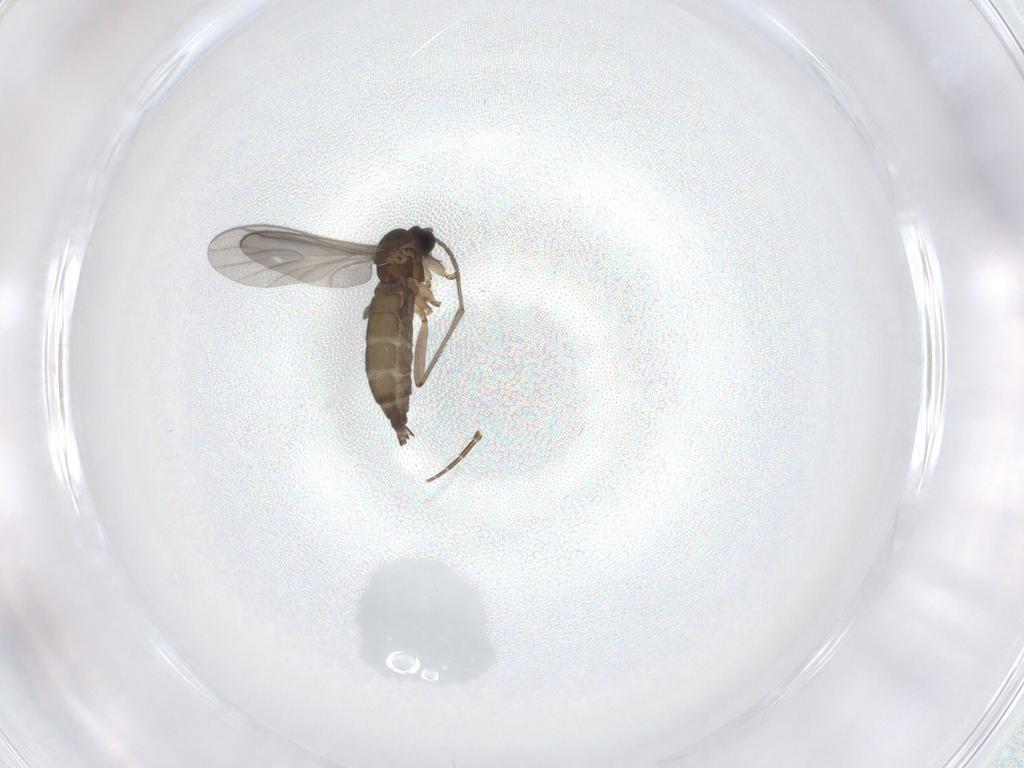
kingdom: Animalia
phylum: Arthropoda
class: Insecta
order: Diptera
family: Sciaridae
